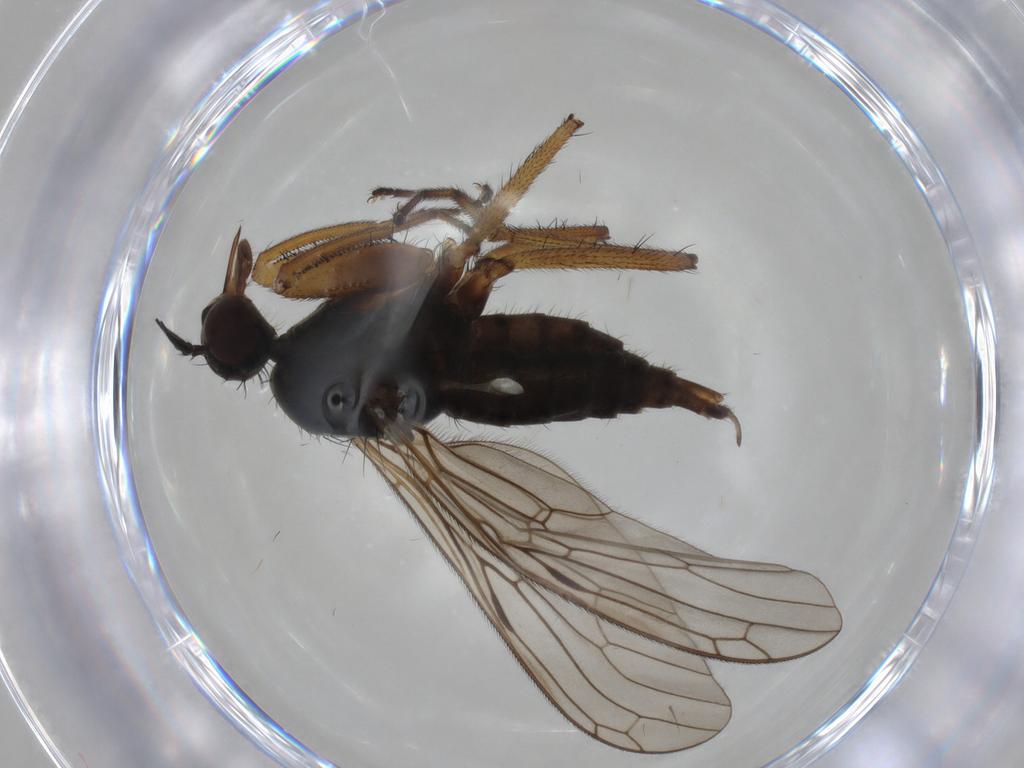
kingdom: Animalia
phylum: Arthropoda
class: Insecta
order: Diptera
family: Empididae
